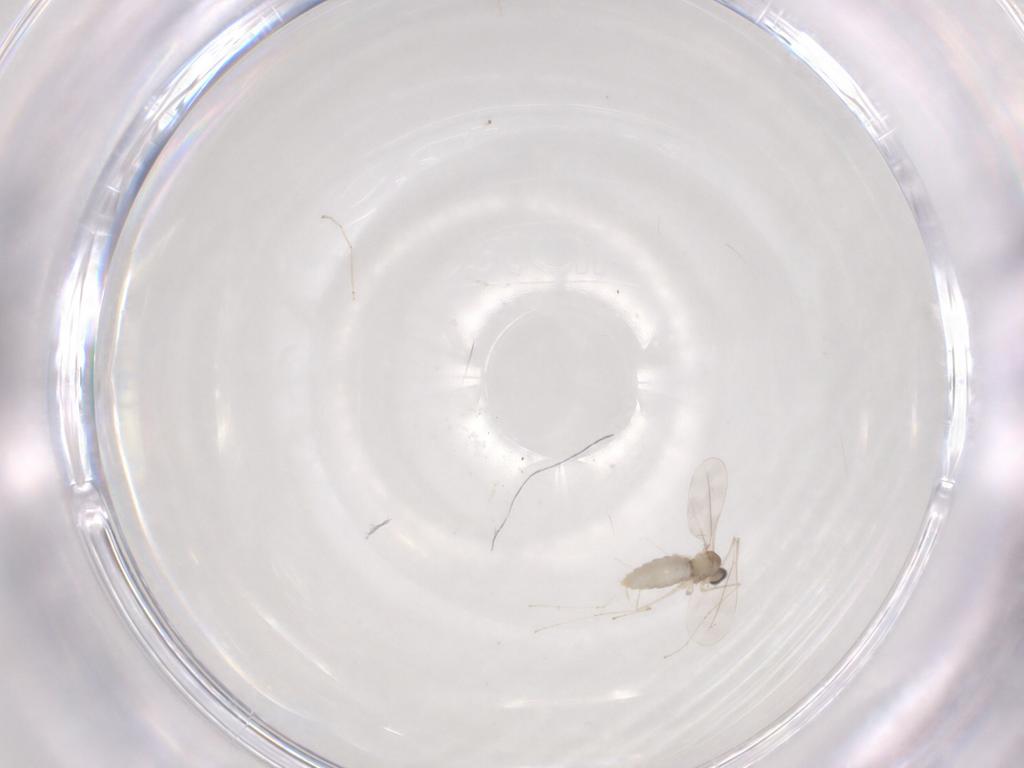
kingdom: Animalia
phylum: Arthropoda
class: Insecta
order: Diptera
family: Cecidomyiidae
